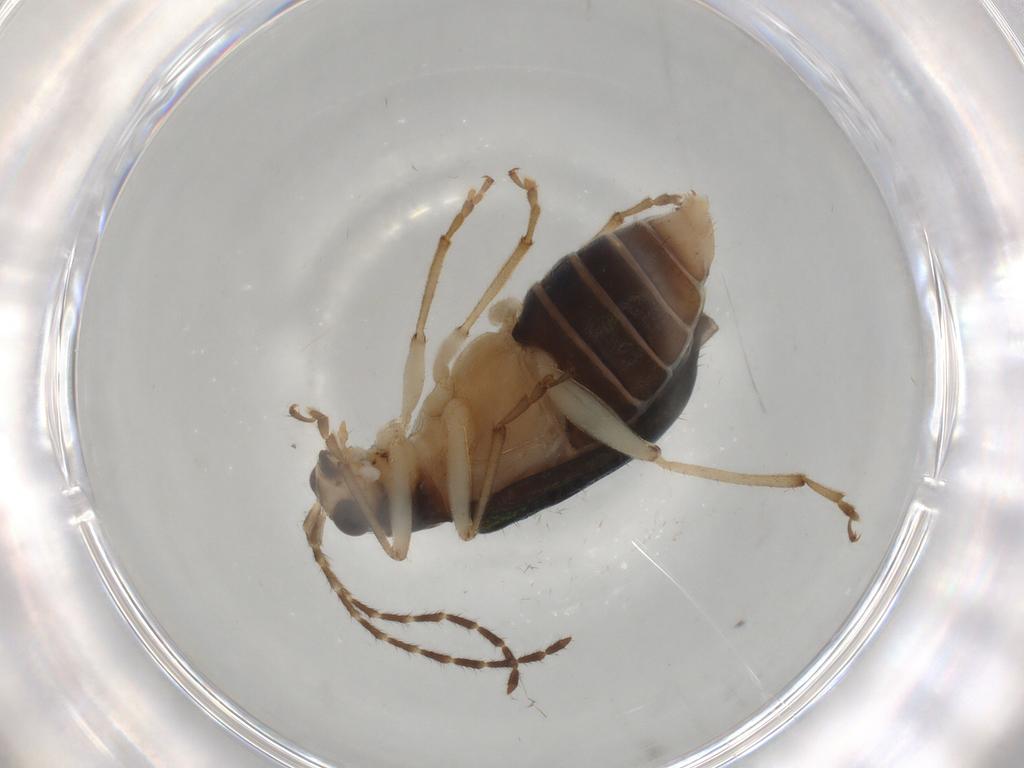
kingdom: Animalia
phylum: Arthropoda
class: Insecta
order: Coleoptera
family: Chrysomelidae
